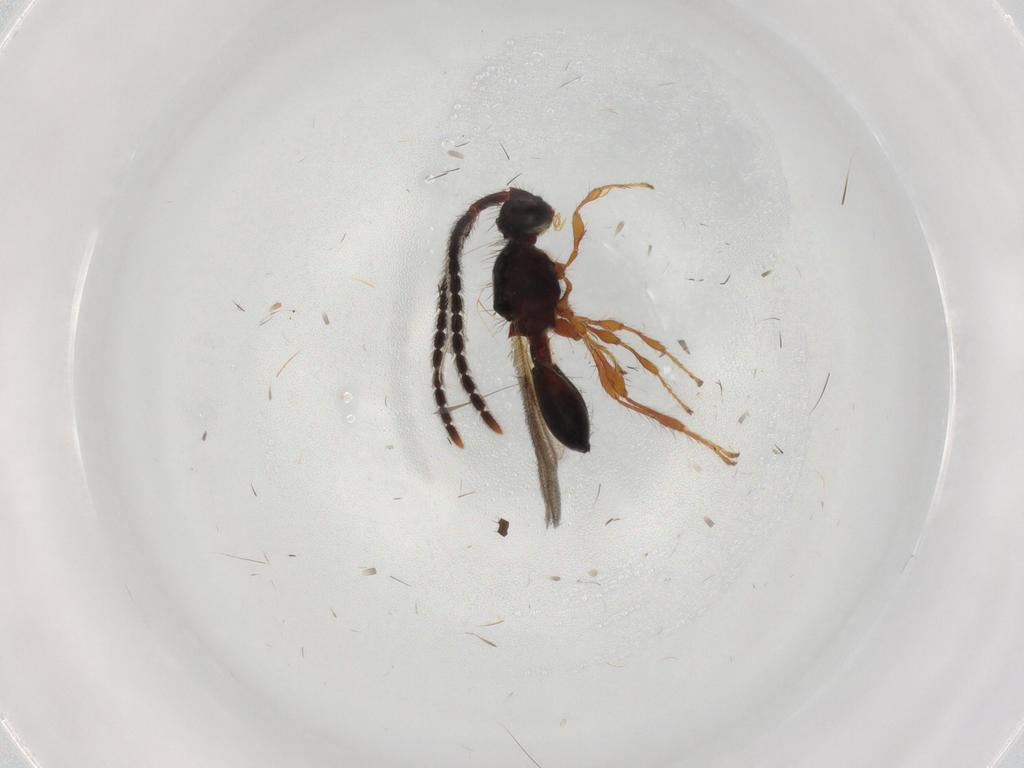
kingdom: Animalia
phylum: Arthropoda
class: Insecta
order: Hymenoptera
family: Diapriidae
